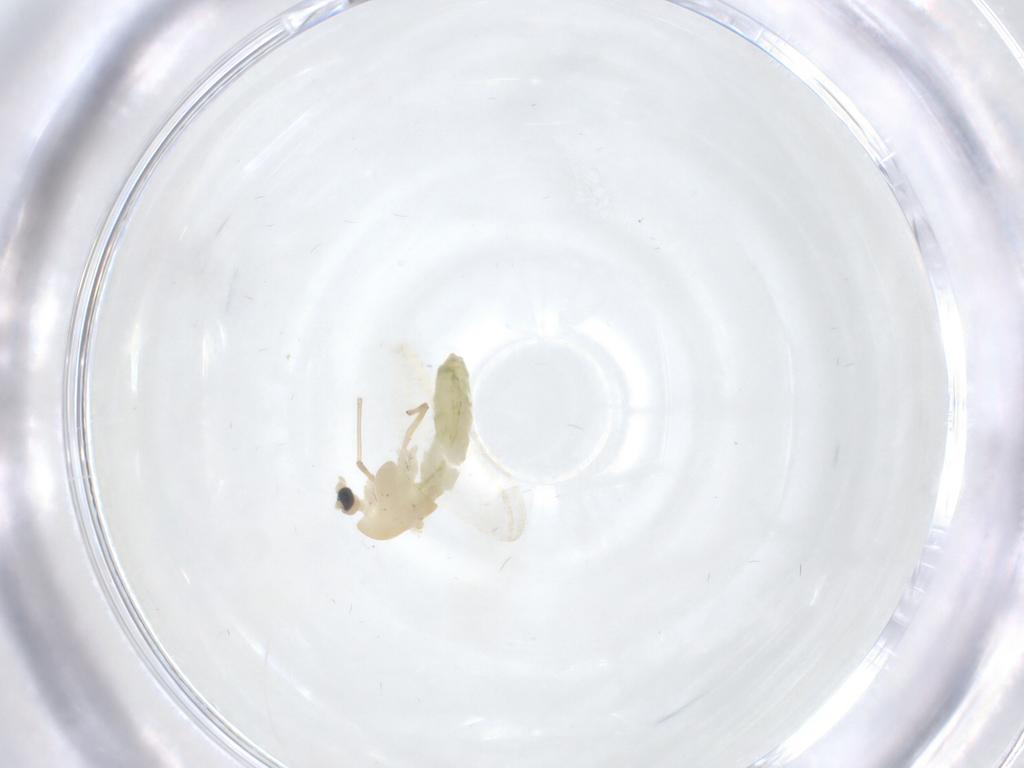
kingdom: Animalia
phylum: Arthropoda
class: Insecta
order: Diptera
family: Chironomidae
